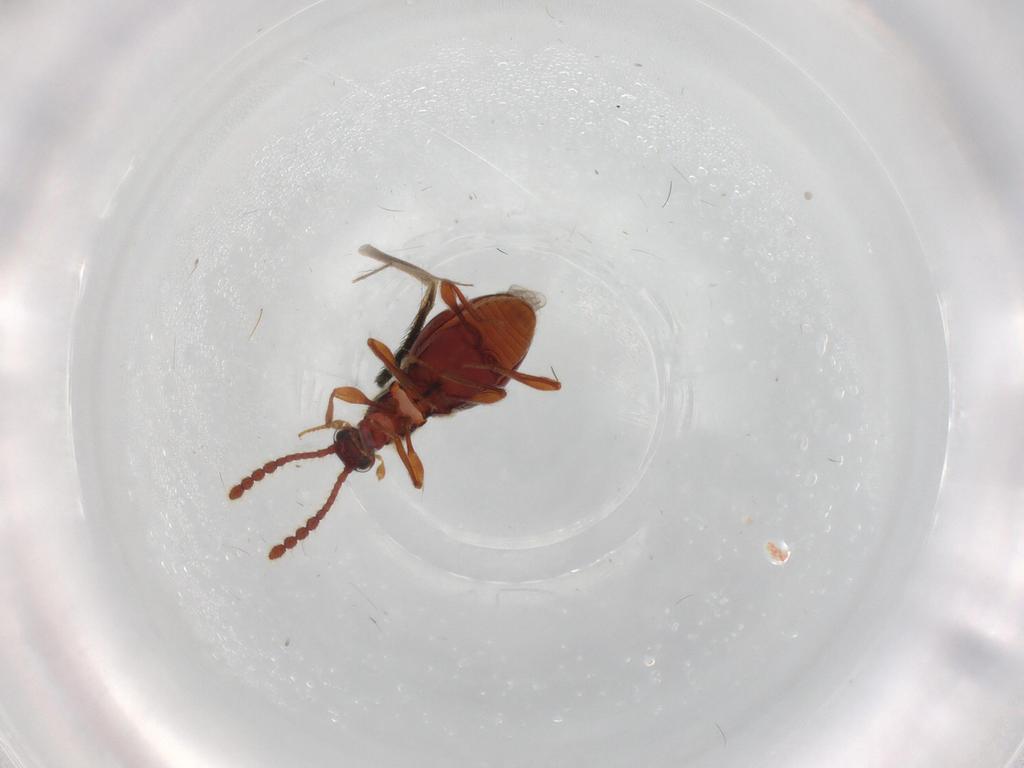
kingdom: Animalia
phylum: Arthropoda
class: Insecta
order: Coleoptera
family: Staphylinidae
